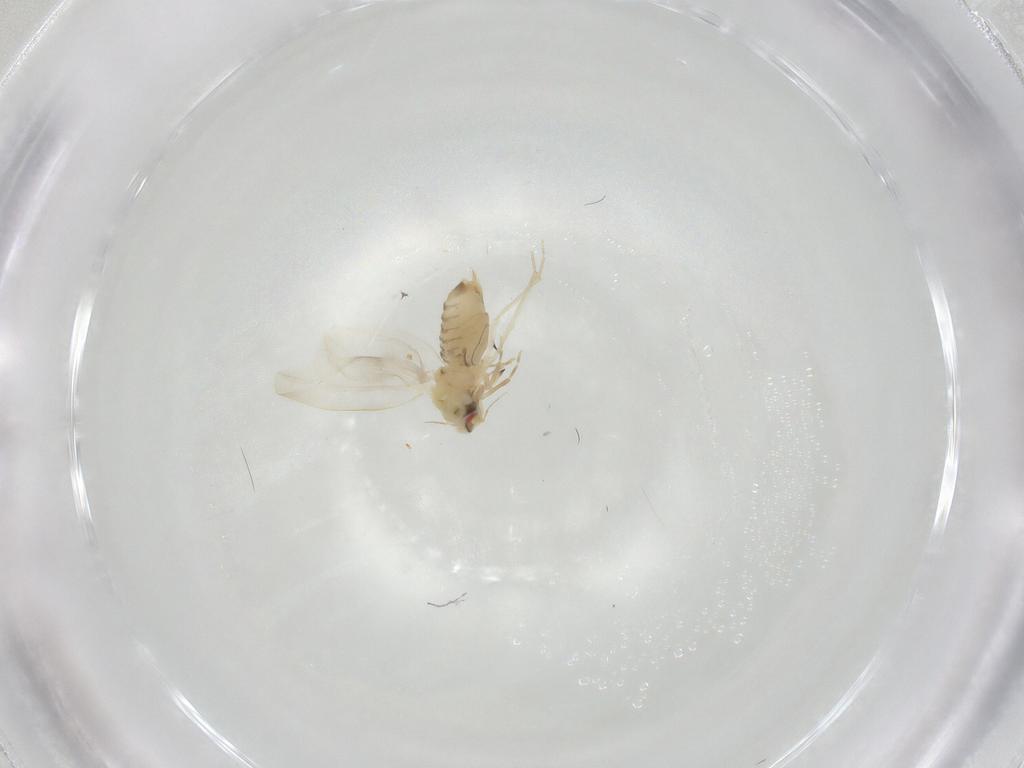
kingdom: Animalia
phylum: Arthropoda
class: Insecta
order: Hemiptera
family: Aleyrodidae
